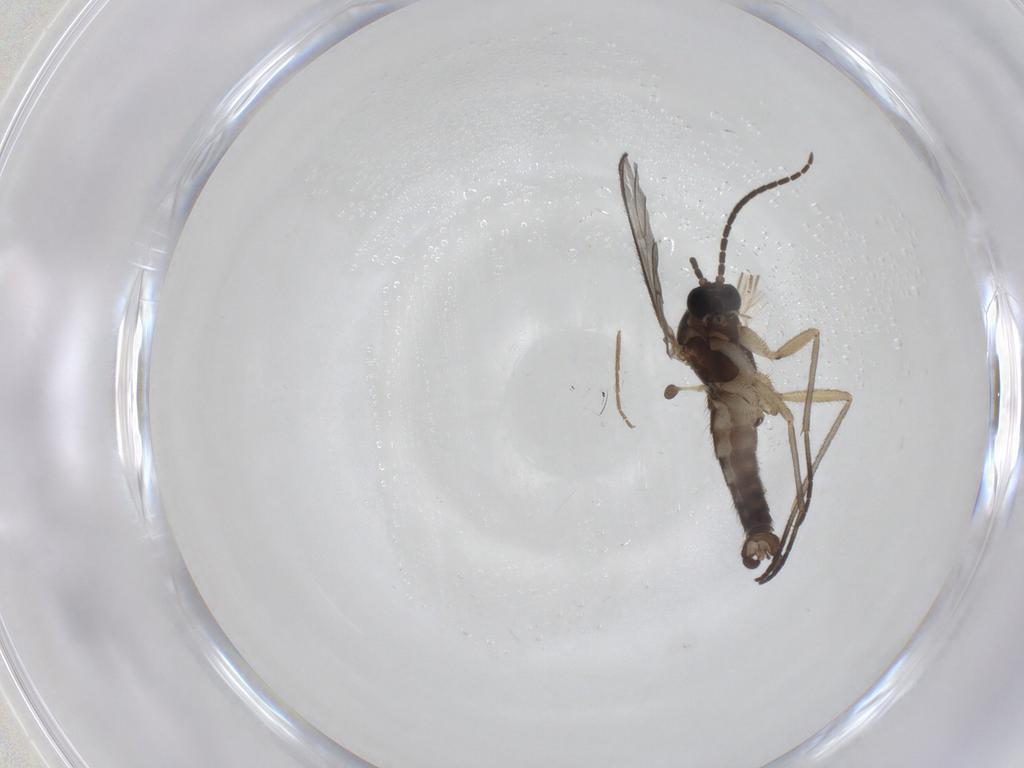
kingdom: Animalia
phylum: Arthropoda
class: Insecta
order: Diptera
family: Sciaridae
